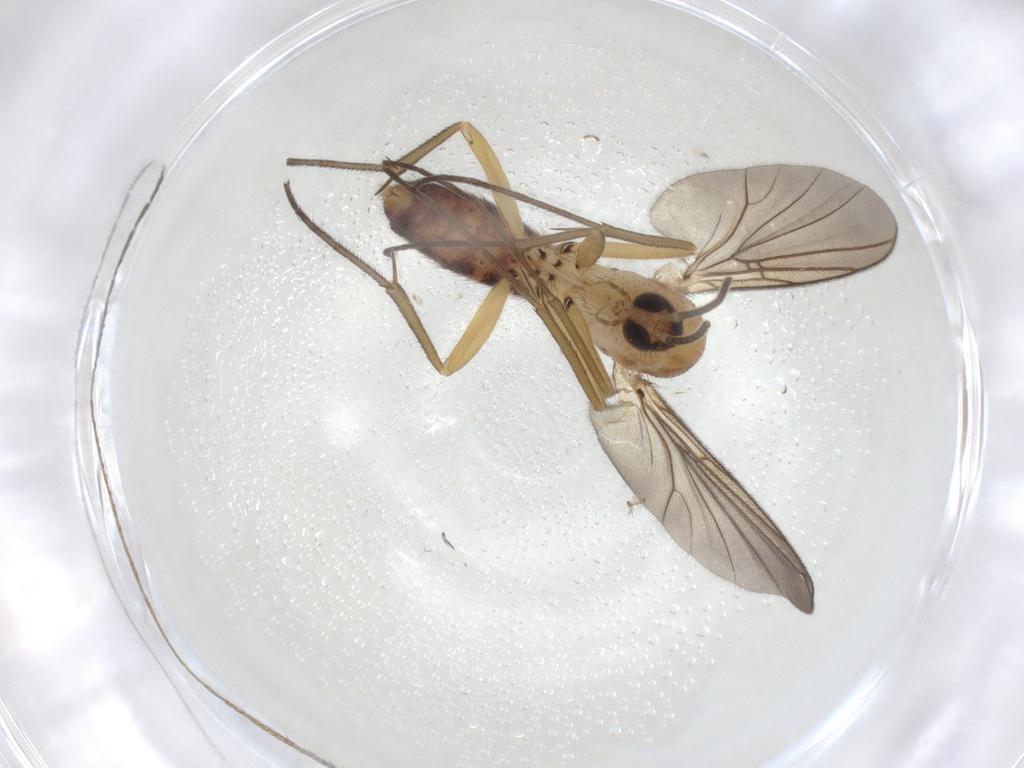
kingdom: Animalia
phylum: Arthropoda
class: Insecta
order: Diptera
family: Mycetophilidae
